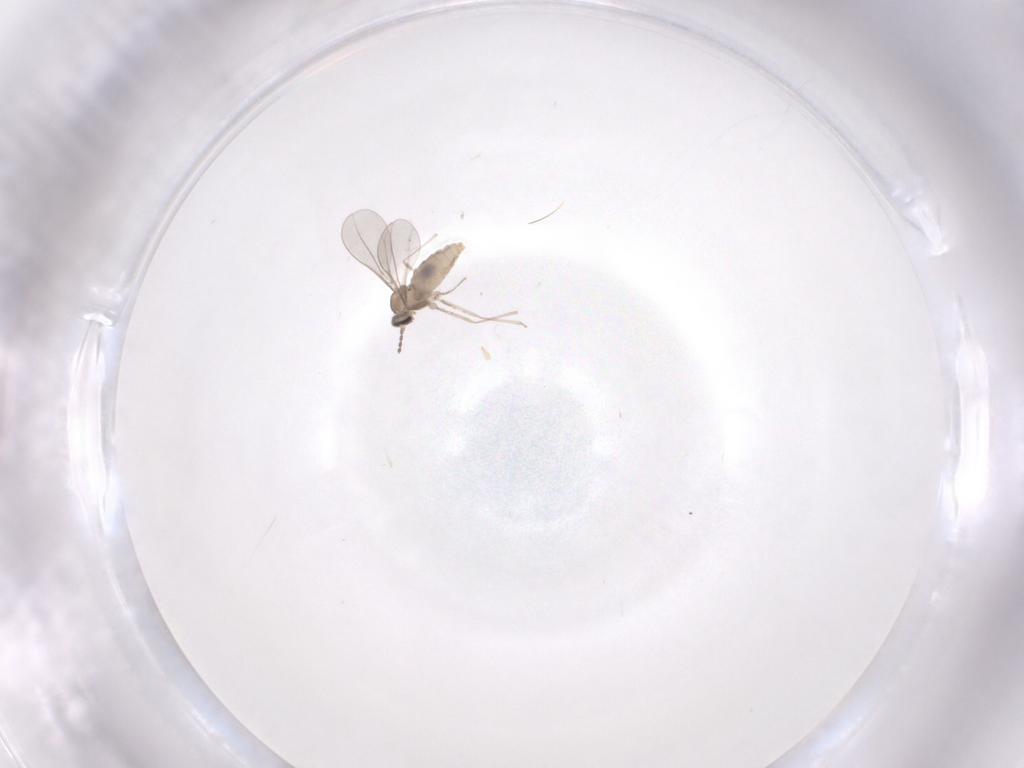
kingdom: Animalia
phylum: Arthropoda
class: Insecta
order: Diptera
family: Cecidomyiidae
